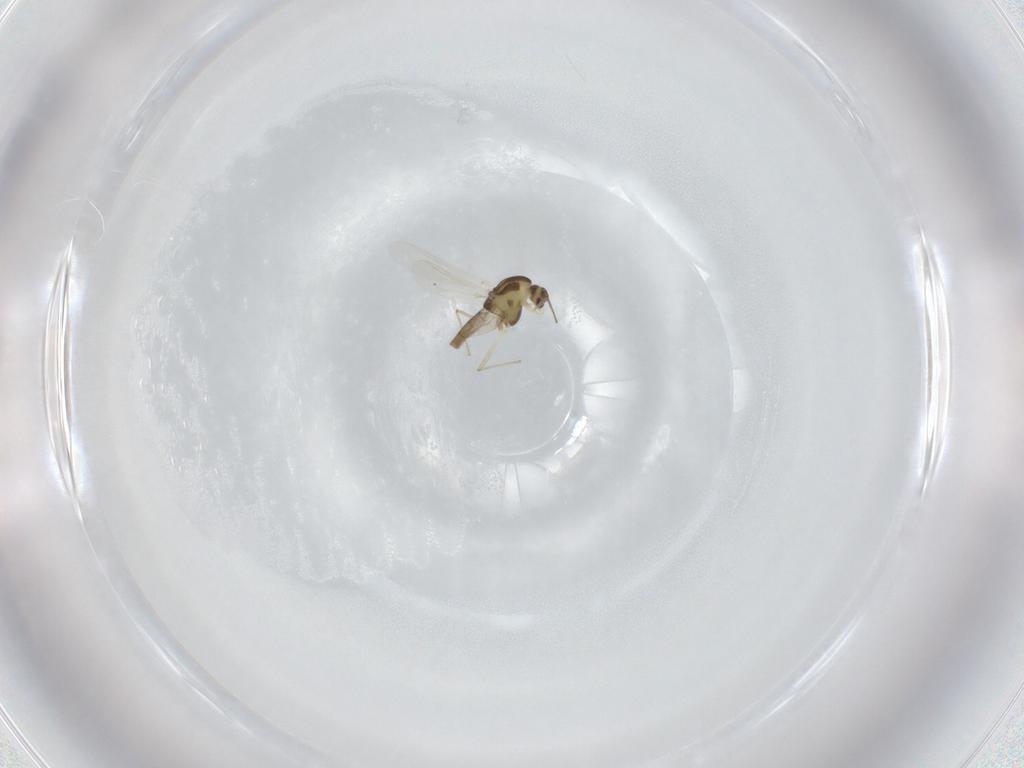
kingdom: Animalia
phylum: Arthropoda
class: Insecta
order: Diptera
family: Chironomidae
